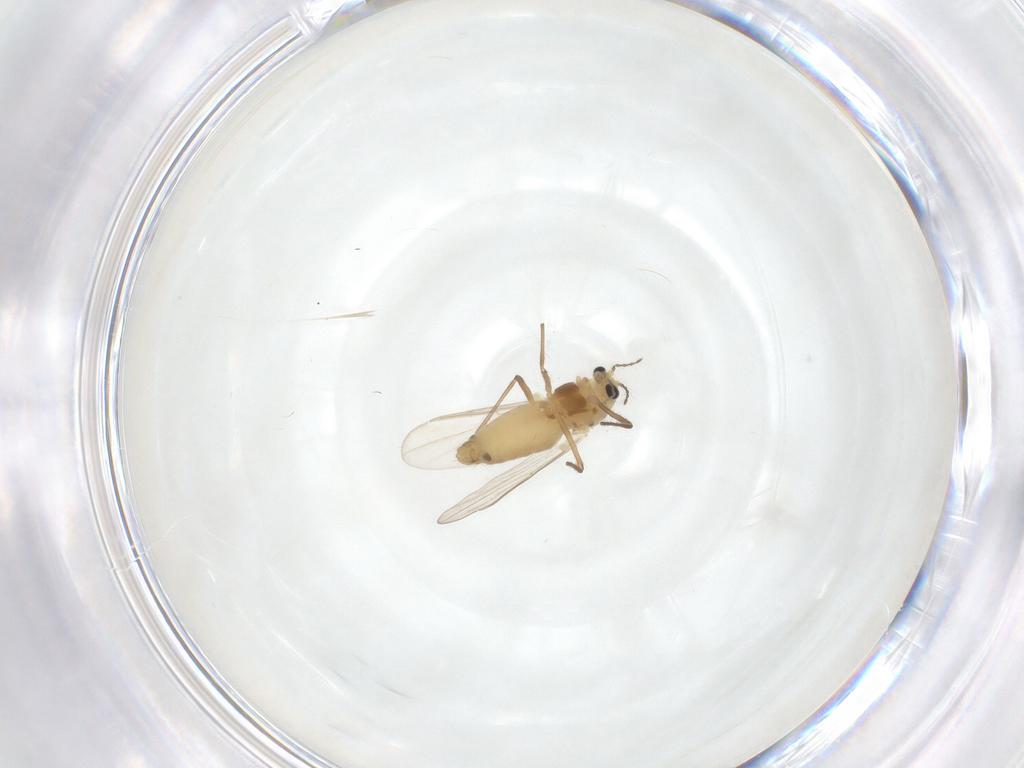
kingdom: Animalia
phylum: Arthropoda
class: Insecta
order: Diptera
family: Chironomidae
